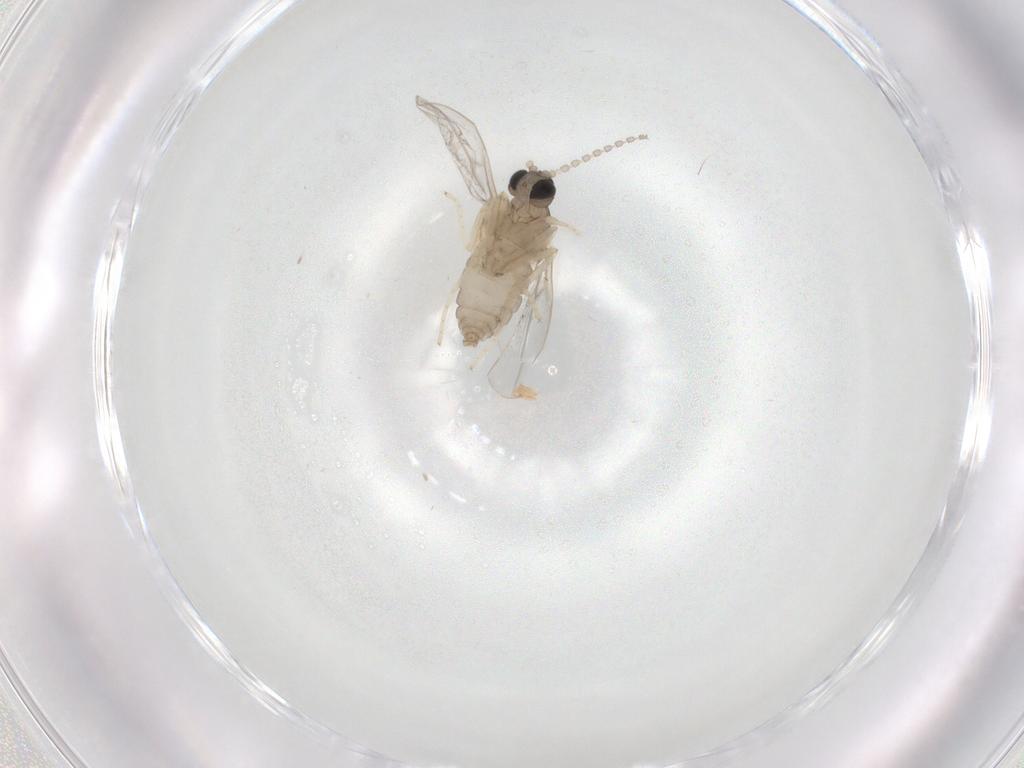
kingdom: Animalia
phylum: Arthropoda
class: Insecta
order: Diptera
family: Cecidomyiidae
